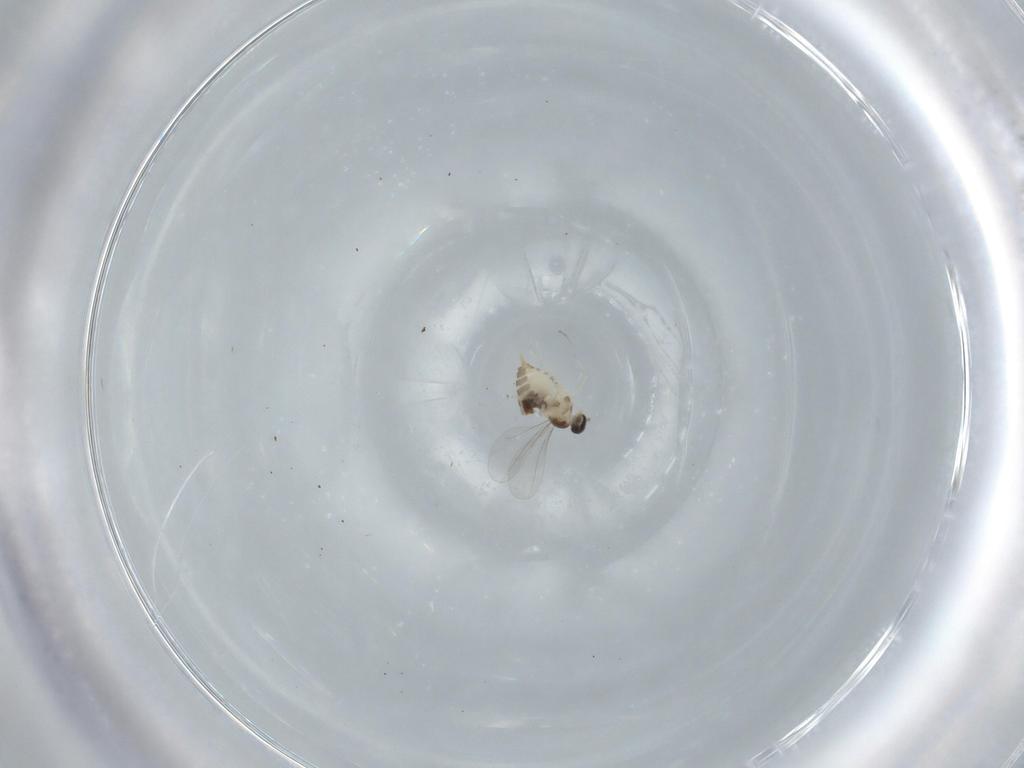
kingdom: Animalia
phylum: Arthropoda
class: Insecta
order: Diptera
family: Cecidomyiidae
